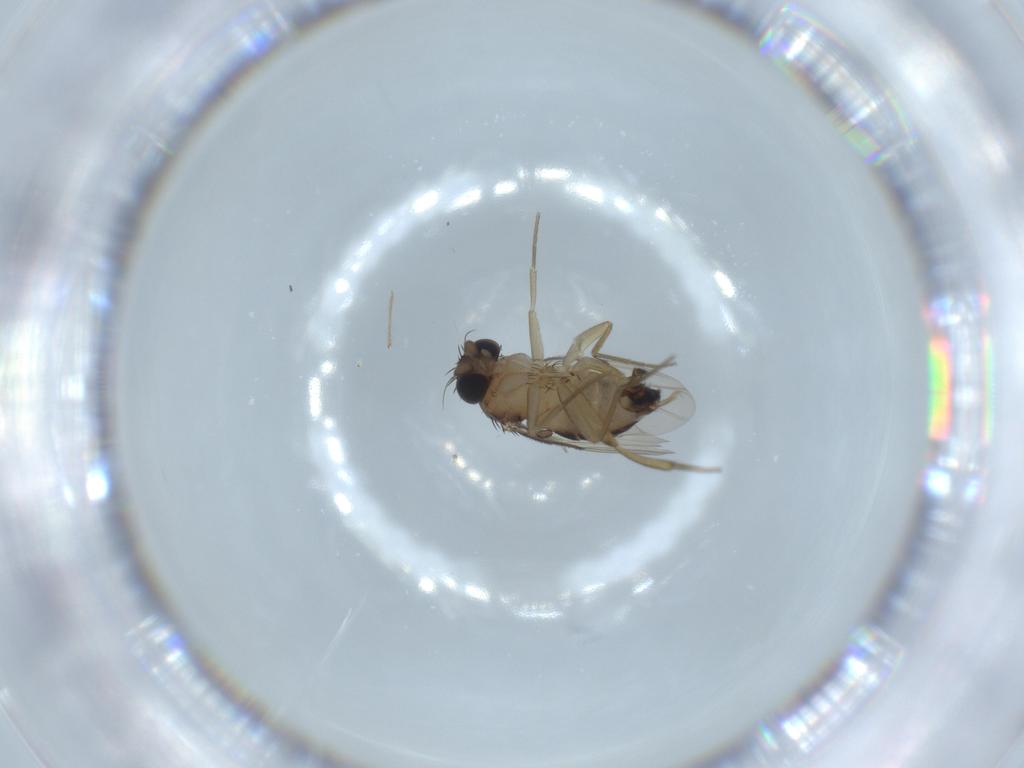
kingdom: Animalia
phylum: Arthropoda
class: Insecta
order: Diptera
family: Phoridae
